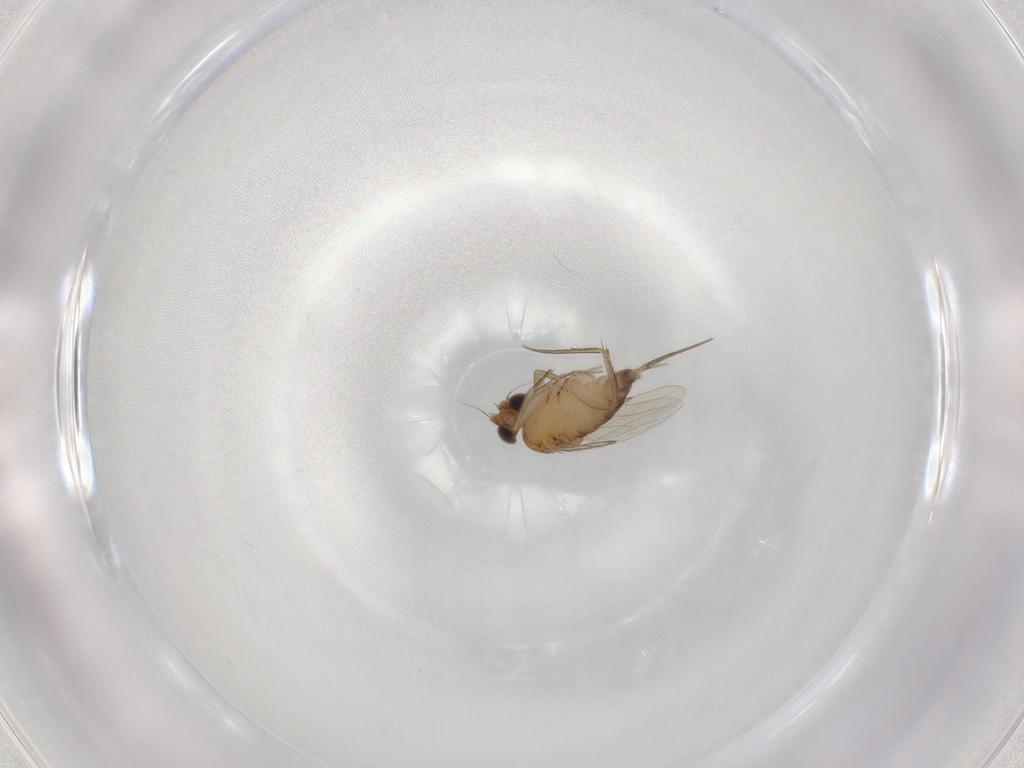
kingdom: Animalia
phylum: Arthropoda
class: Insecta
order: Diptera
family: Phoridae
